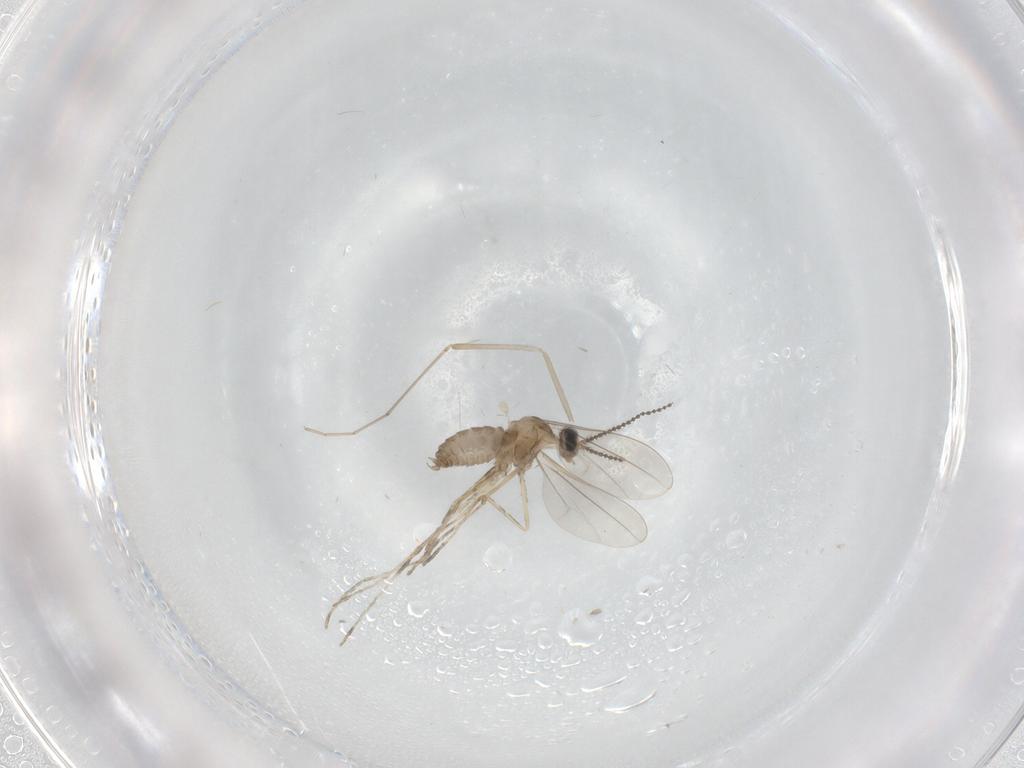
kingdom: Animalia
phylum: Arthropoda
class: Insecta
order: Diptera
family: Cecidomyiidae
